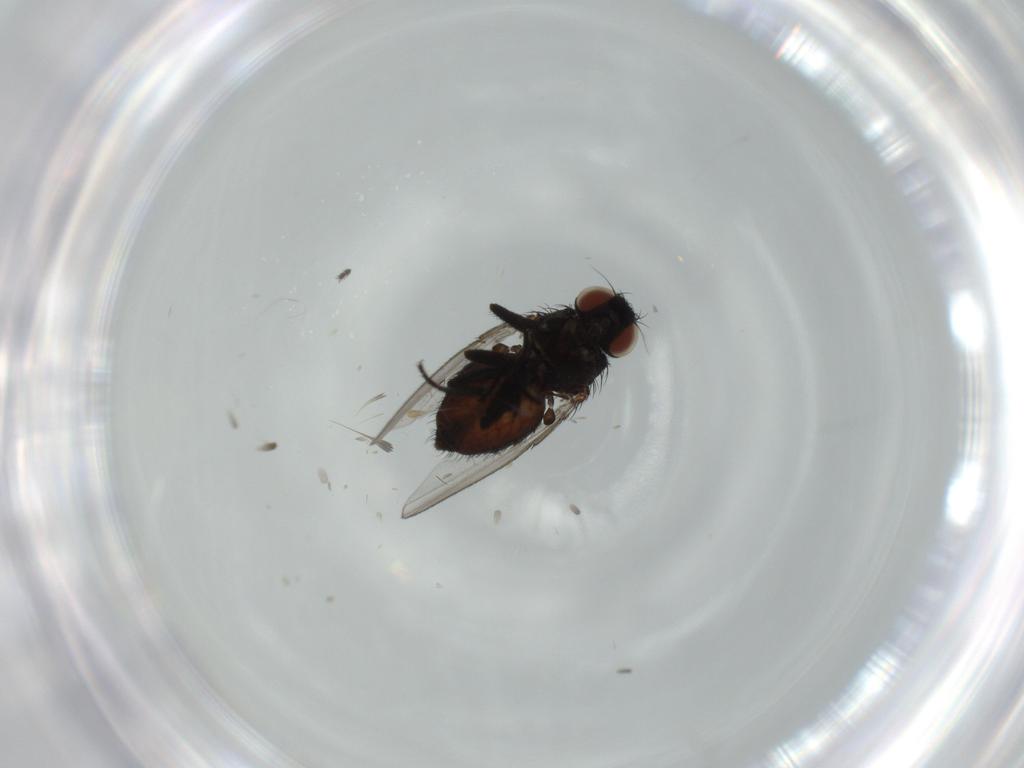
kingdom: Animalia
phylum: Arthropoda
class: Insecta
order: Diptera
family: Milichiidae
